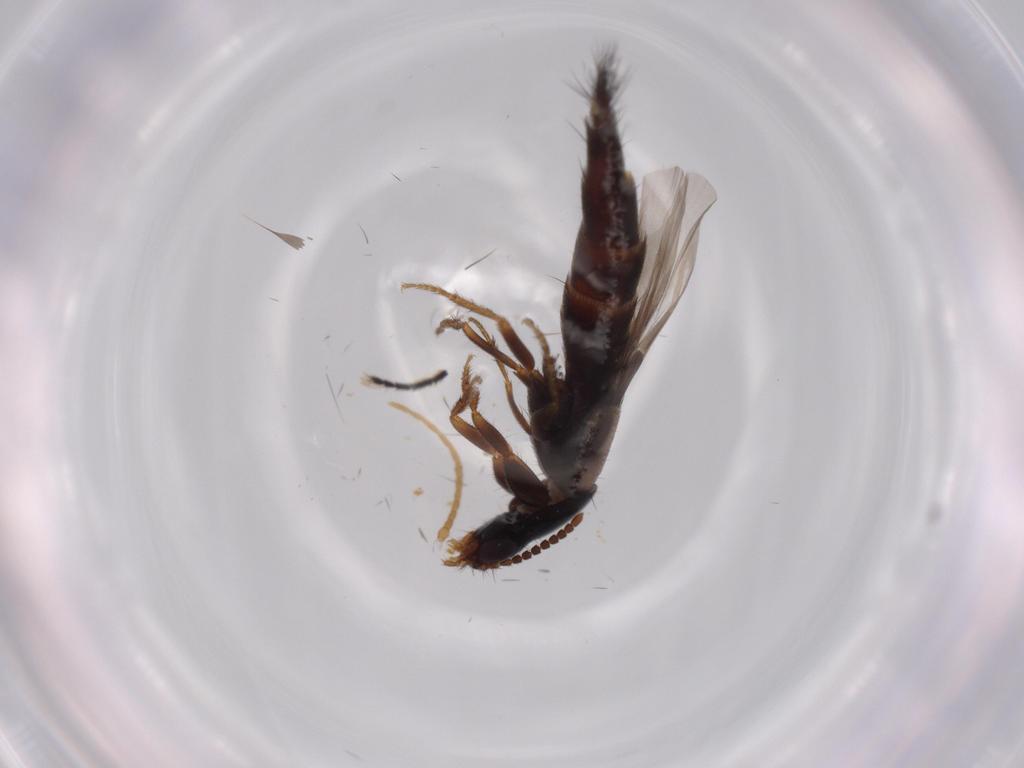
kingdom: Animalia
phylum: Arthropoda
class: Insecta
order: Coleoptera
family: Staphylinidae
